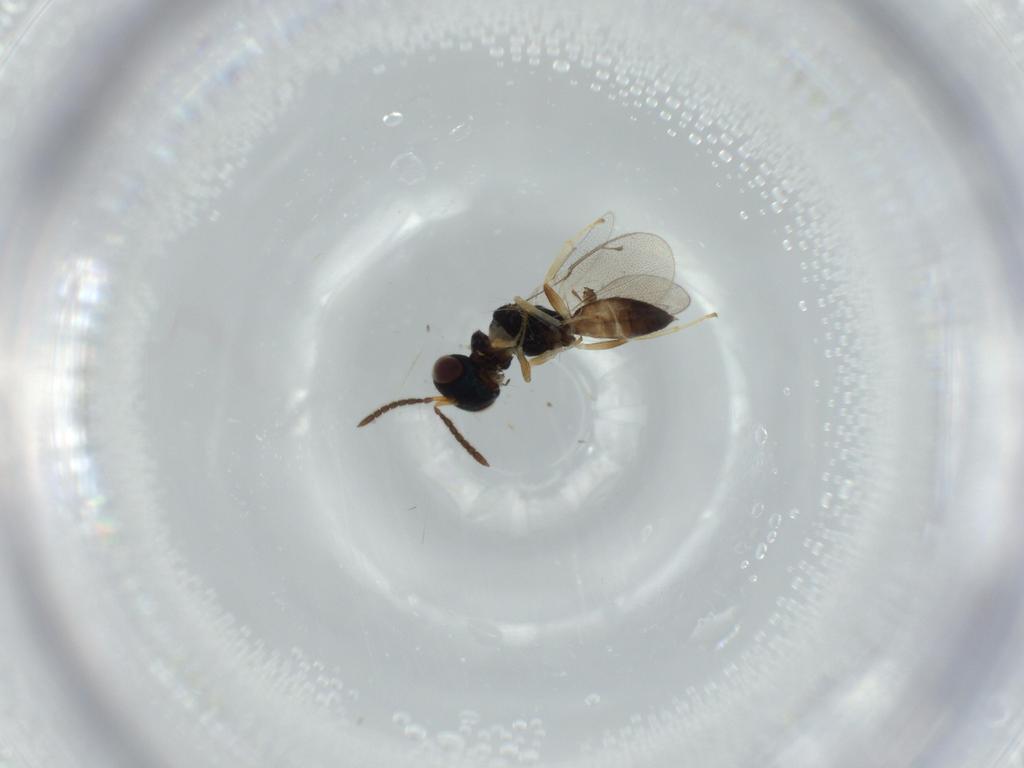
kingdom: Animalia
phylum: Arthropoda
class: Insecta
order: Hymenoptera
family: Pteromalidae
